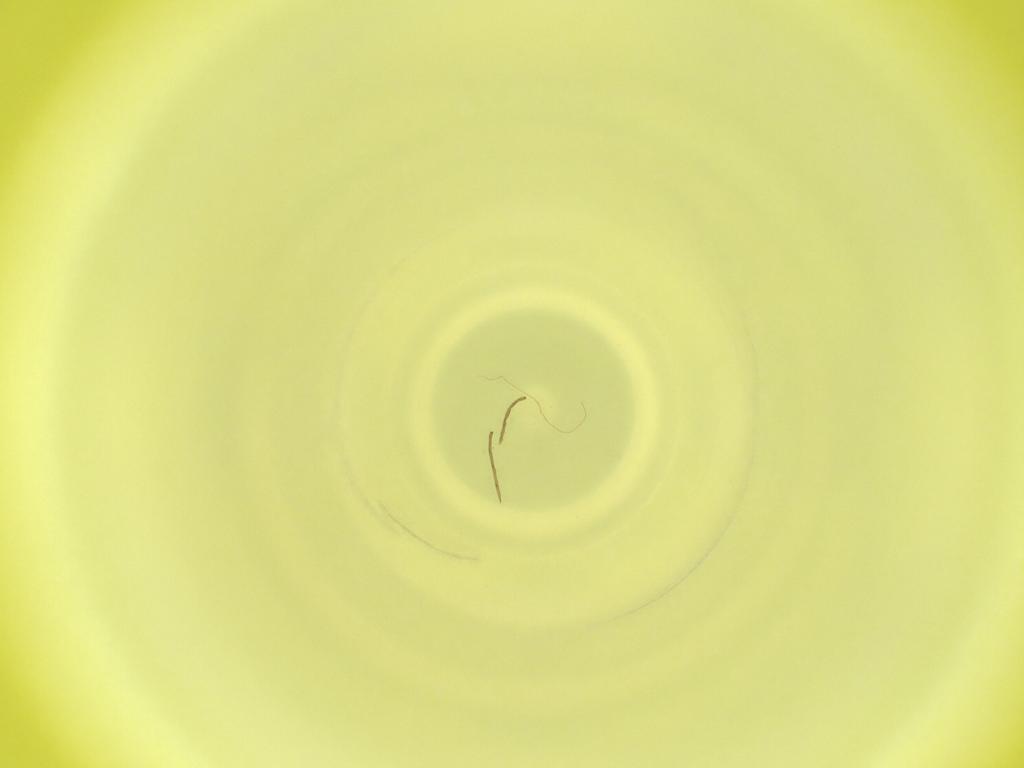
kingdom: Animalia
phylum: Arthropoda
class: Insecta
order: Diptera
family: Cecidomyiidae
